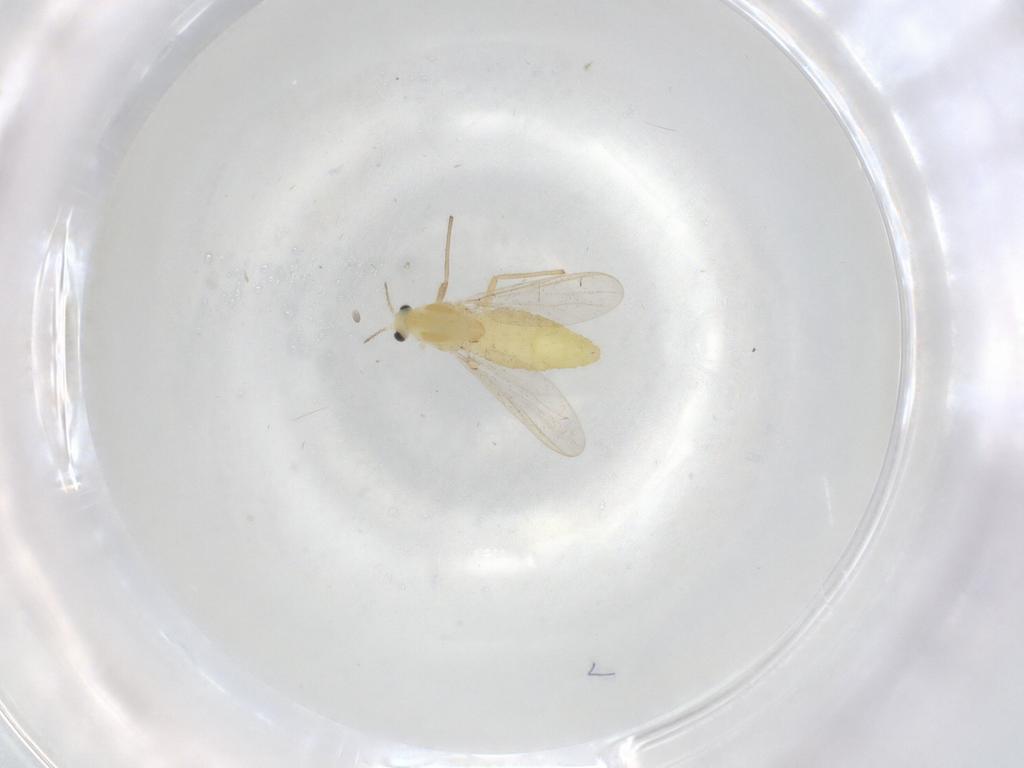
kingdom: Animalia
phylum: Arthropoda
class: Insecta
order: Diptera
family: Chironomidae
